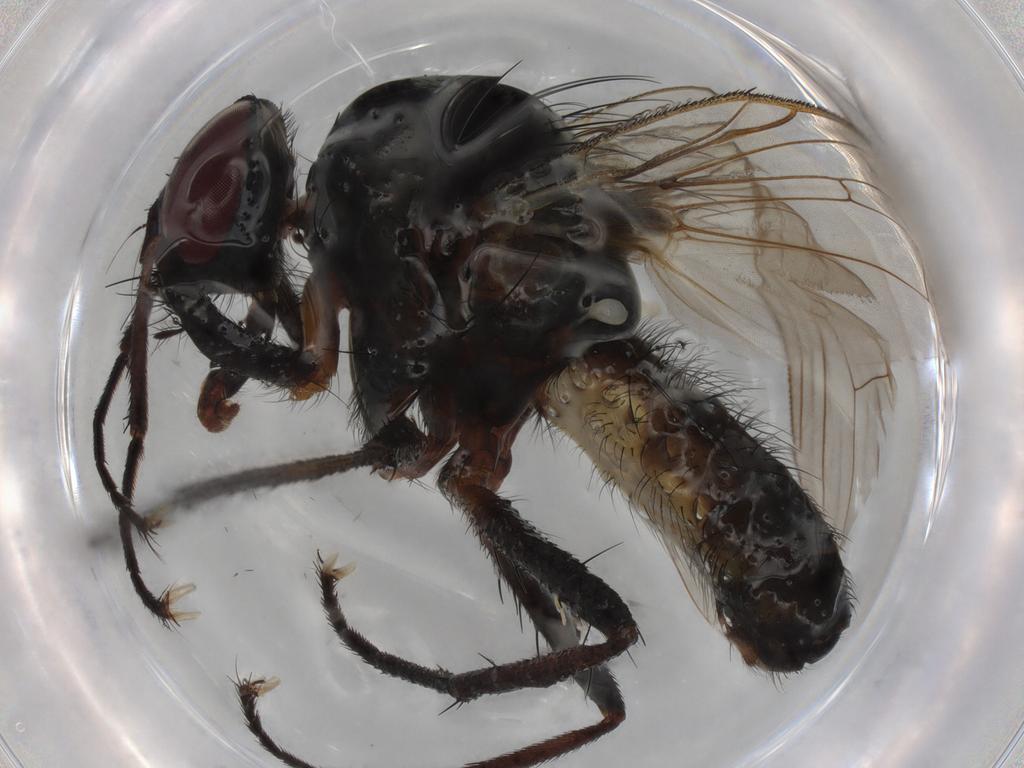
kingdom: Animalia
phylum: Arthropoda
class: Insecta
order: Diptera
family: Anthomyiidae
